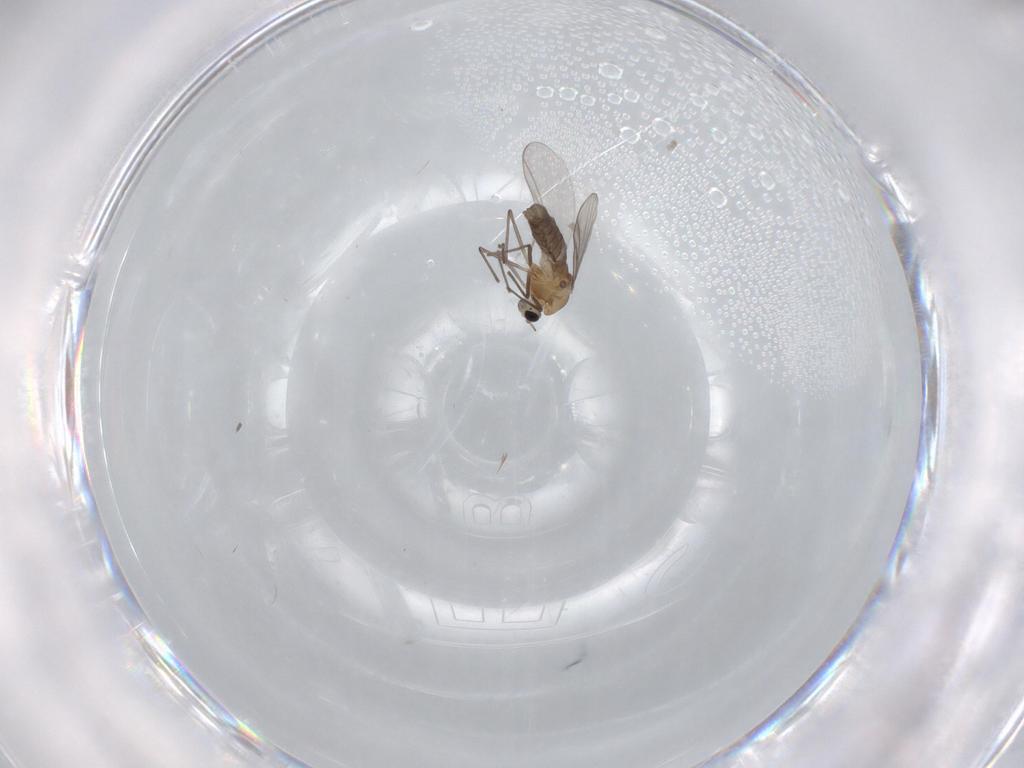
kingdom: Animalia
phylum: Arthropoda
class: Insecta
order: Diptera
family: Chironomidae
